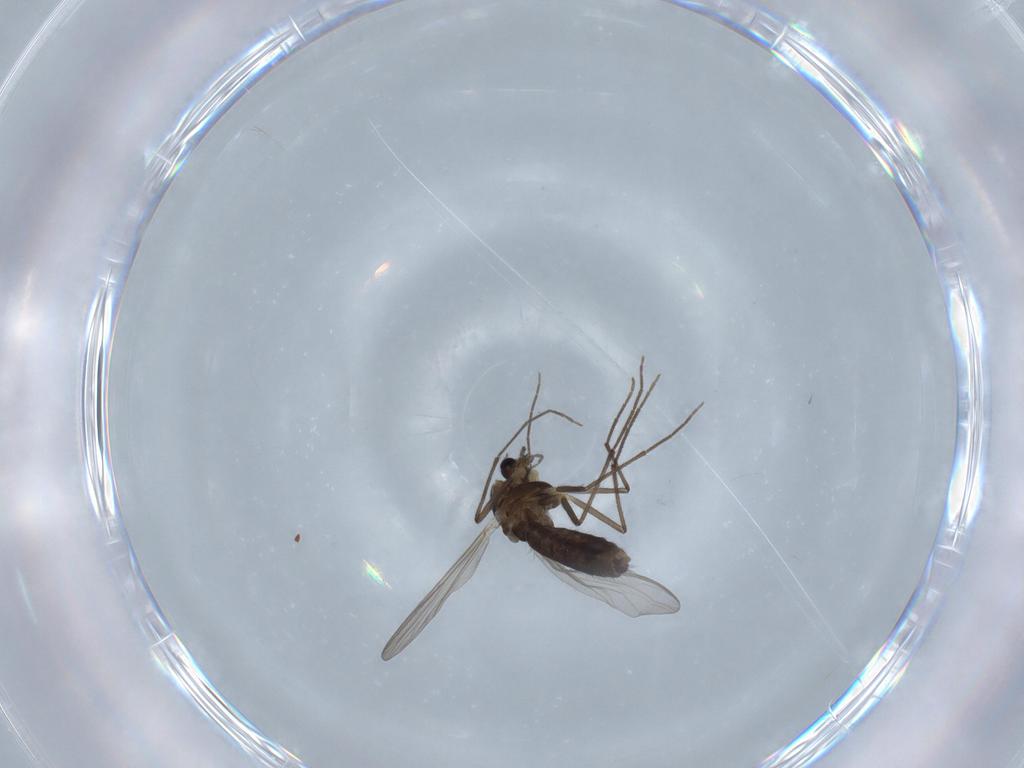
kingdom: Animalia
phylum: Arthropoda
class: Insecta
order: Diptera
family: Chironomidae
